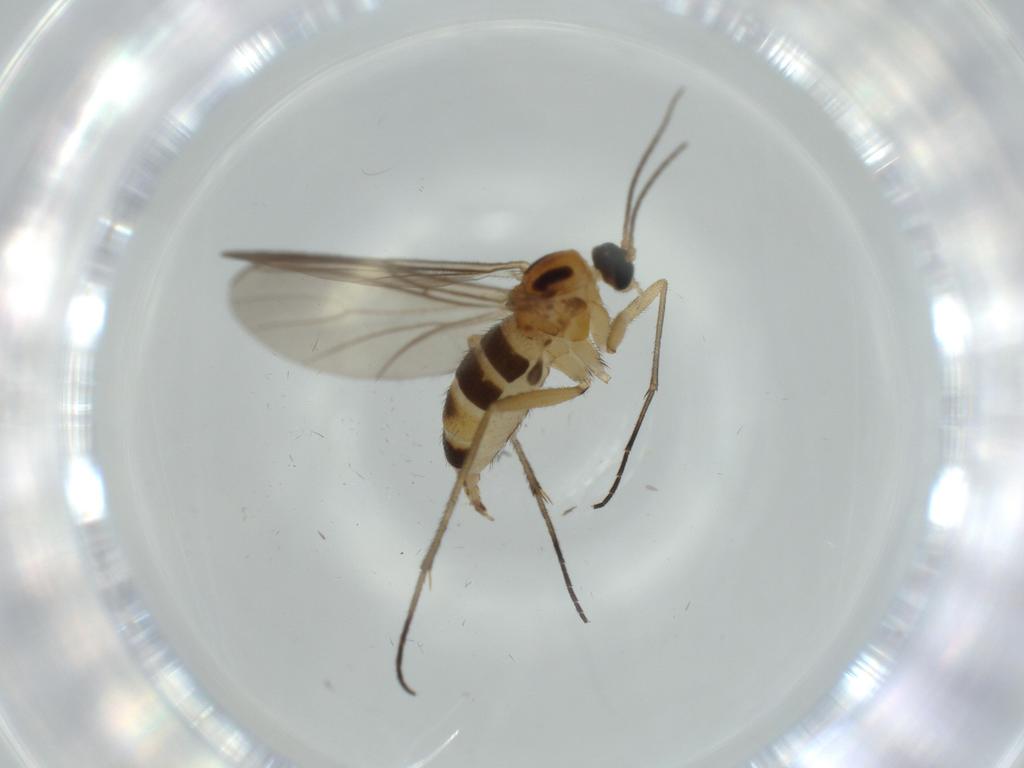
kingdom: Animalia
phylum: Arthropoda
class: Insecta
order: Diptera
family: Sciaridae
